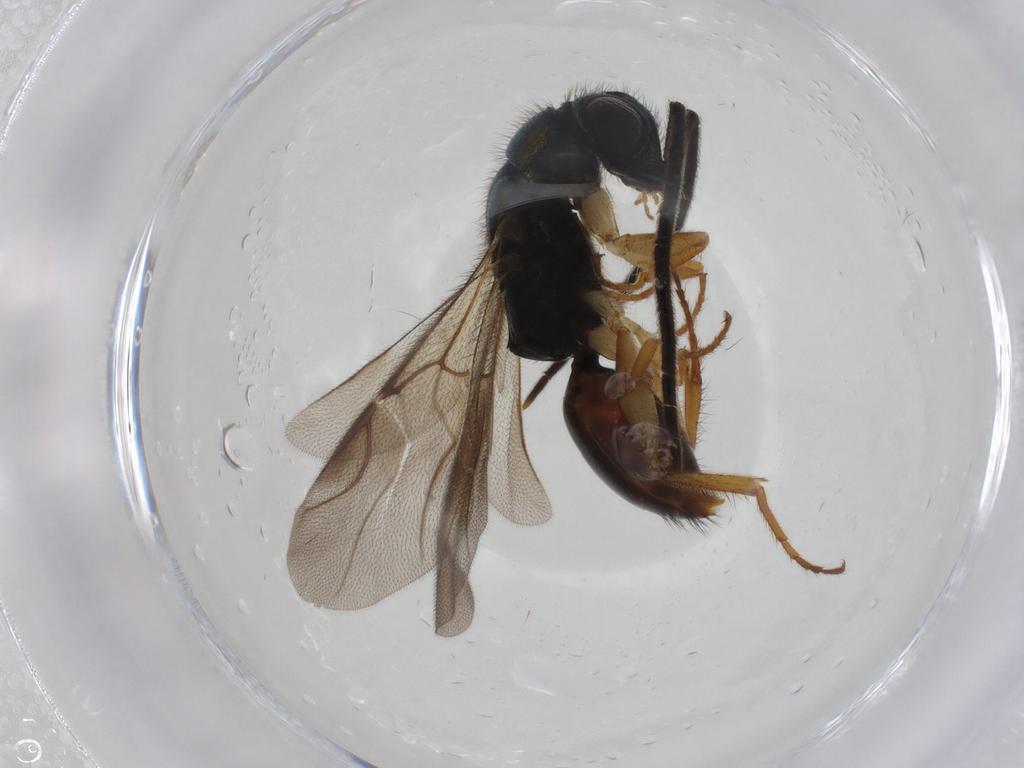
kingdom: Animalia
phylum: Arthropoda
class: Insecta
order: Hymenoptera
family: Chrysididae
